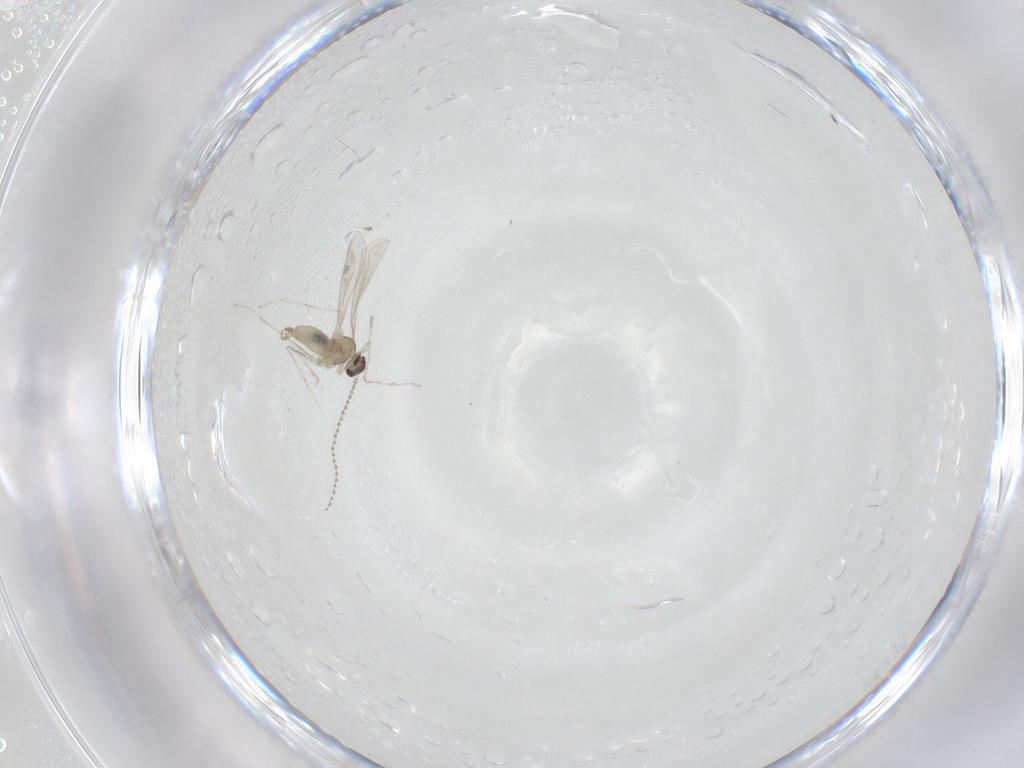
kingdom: Animalia
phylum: Arthropoda
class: Insecta
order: Diptera
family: Cecidomyiidae
